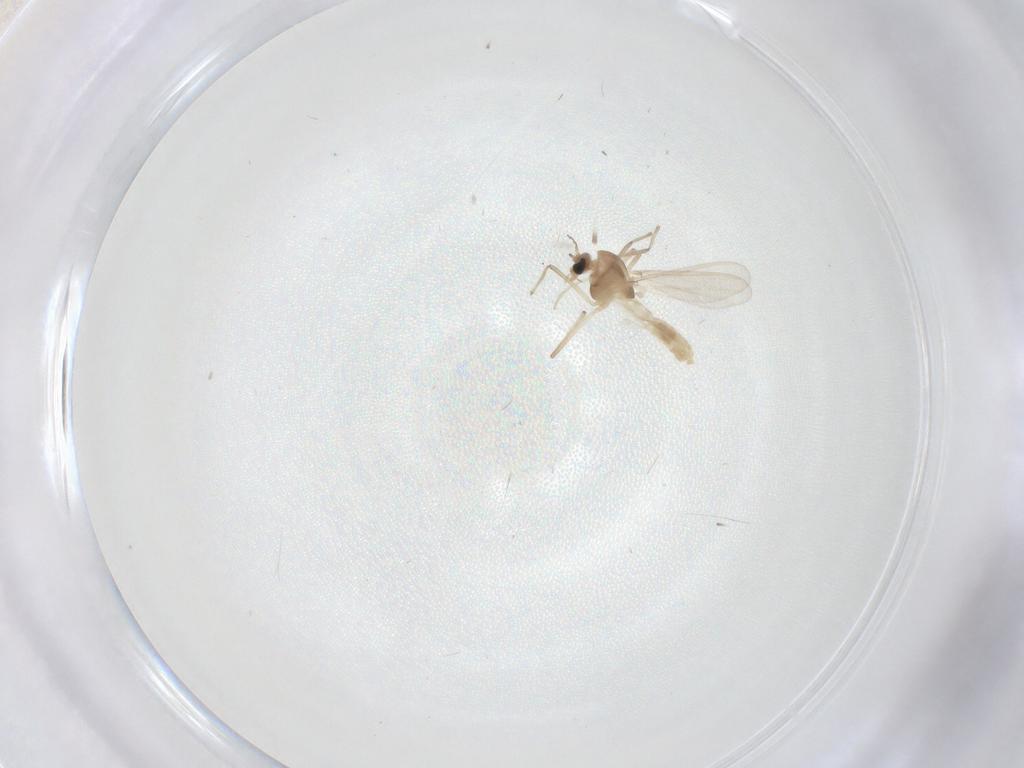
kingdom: Animalia
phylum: Arthropoda
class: Insecta
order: Diptera
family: Chironomidae
